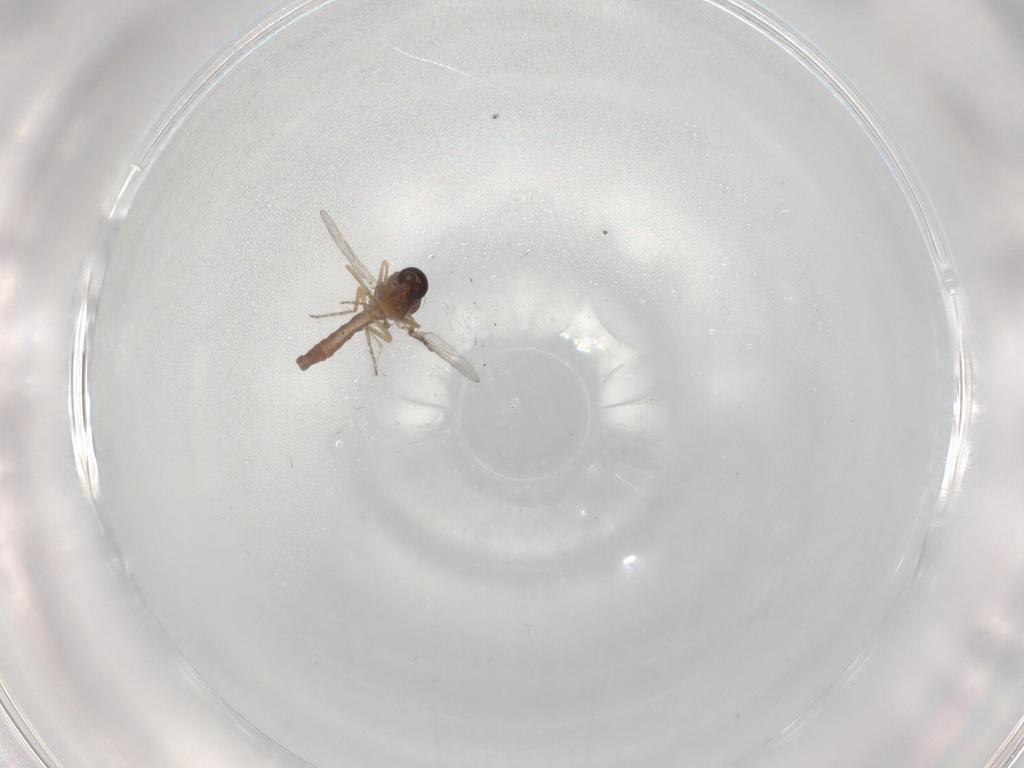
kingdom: Animalia
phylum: Arthropoda
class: Insecta
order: Diptera
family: Ceratopogonidae
